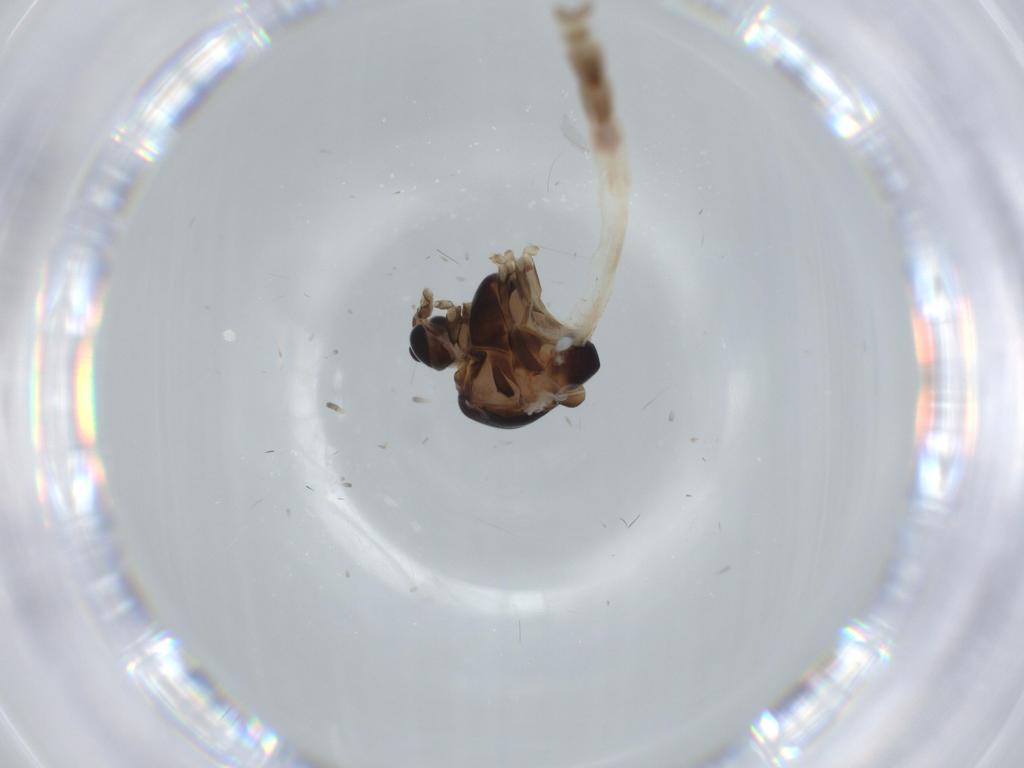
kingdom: Animalia
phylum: Arthropoda
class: Insecta
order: Diptera
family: Chironomidae
